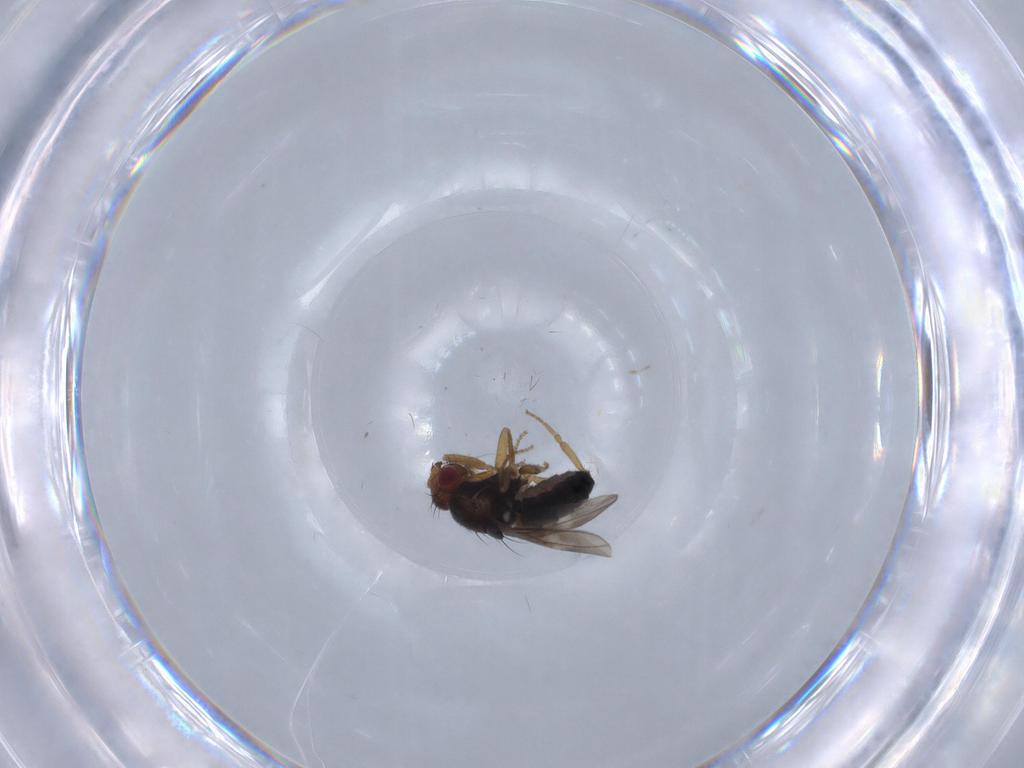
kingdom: Animalia
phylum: Arthropoda
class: Insecta
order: Diptera
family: Sphaeroceridae
